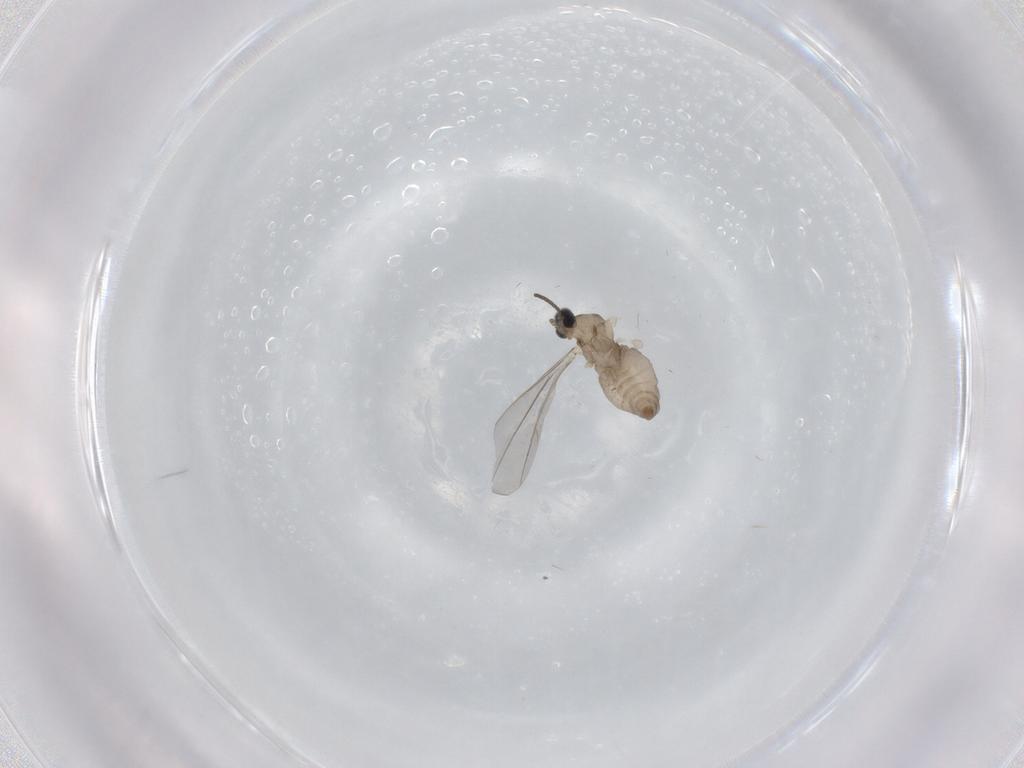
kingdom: Animalia
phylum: Arthropoda
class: Insecta
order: Diptera
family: Cecidomyiidae
